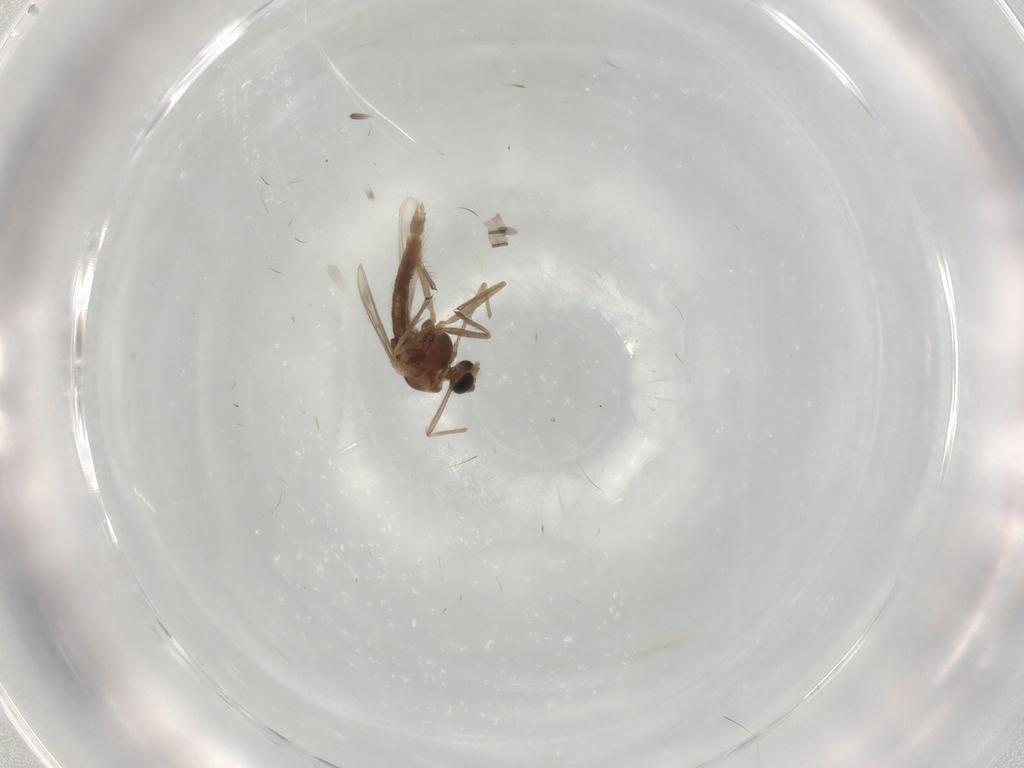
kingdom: Animalia
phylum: Arthropoda
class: Insecta
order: Diptera
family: Chironomidae
